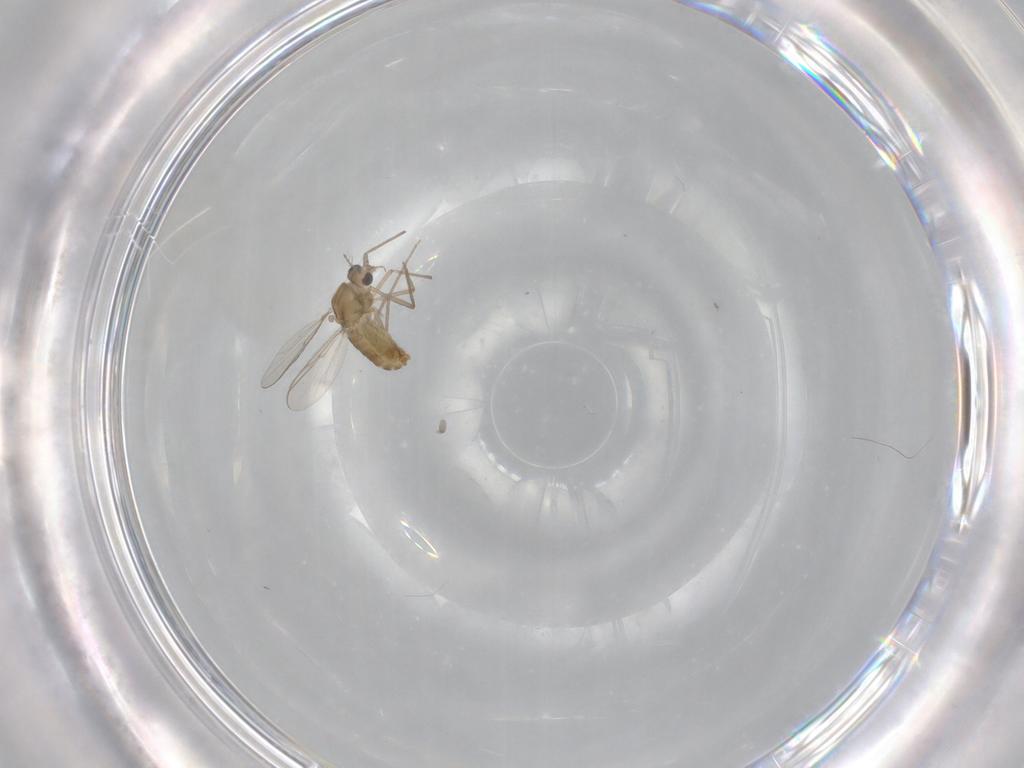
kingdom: Animalia
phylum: Arthropoda
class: Insecta
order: Diptera
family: Chironomidae
